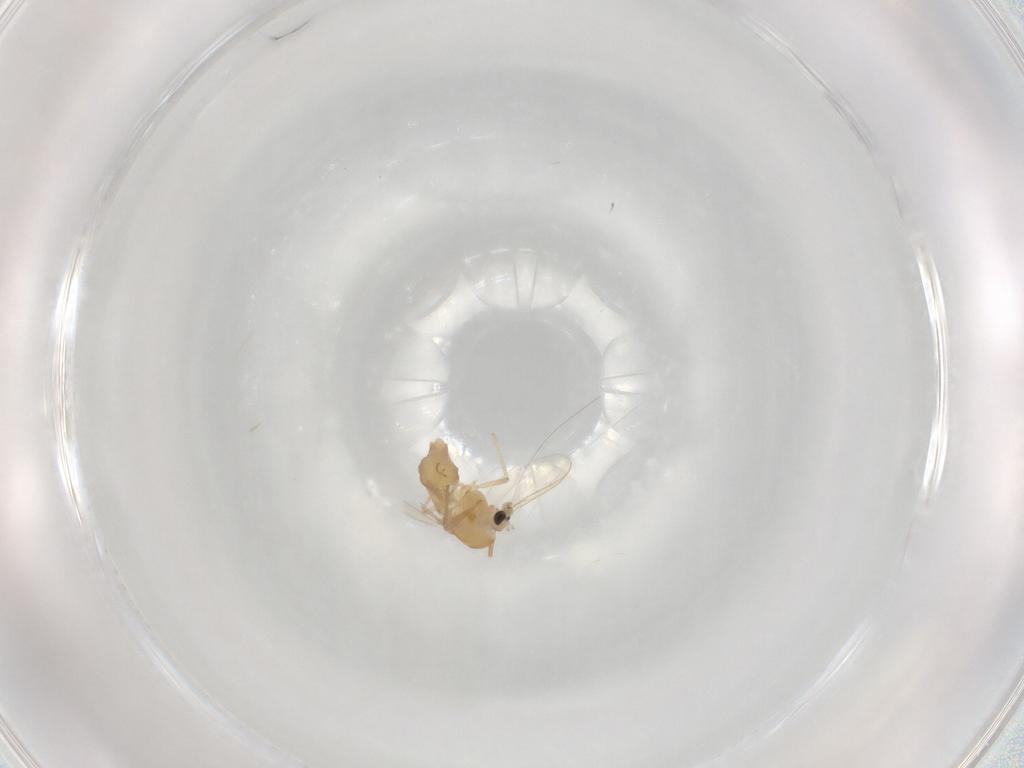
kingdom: Animalia
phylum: Arthropoda
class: Insecta
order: Diptera
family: Chironomidae
